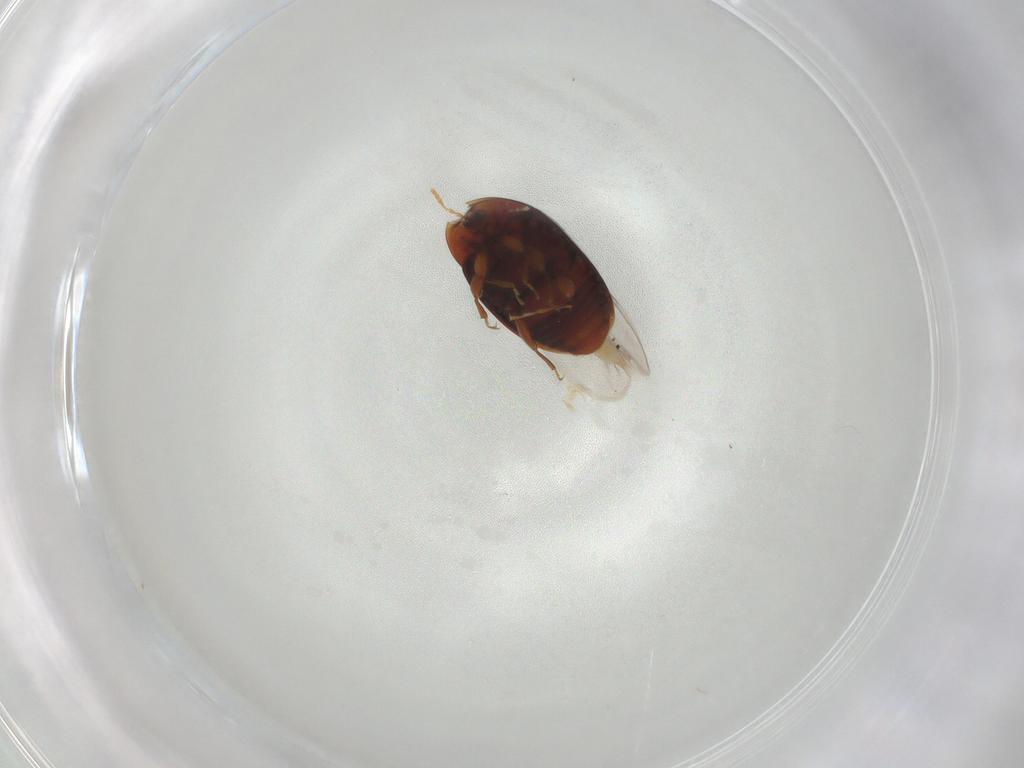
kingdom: Animalia
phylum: Arthropoda
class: Insecta
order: Coleoptera
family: Corylophidae
